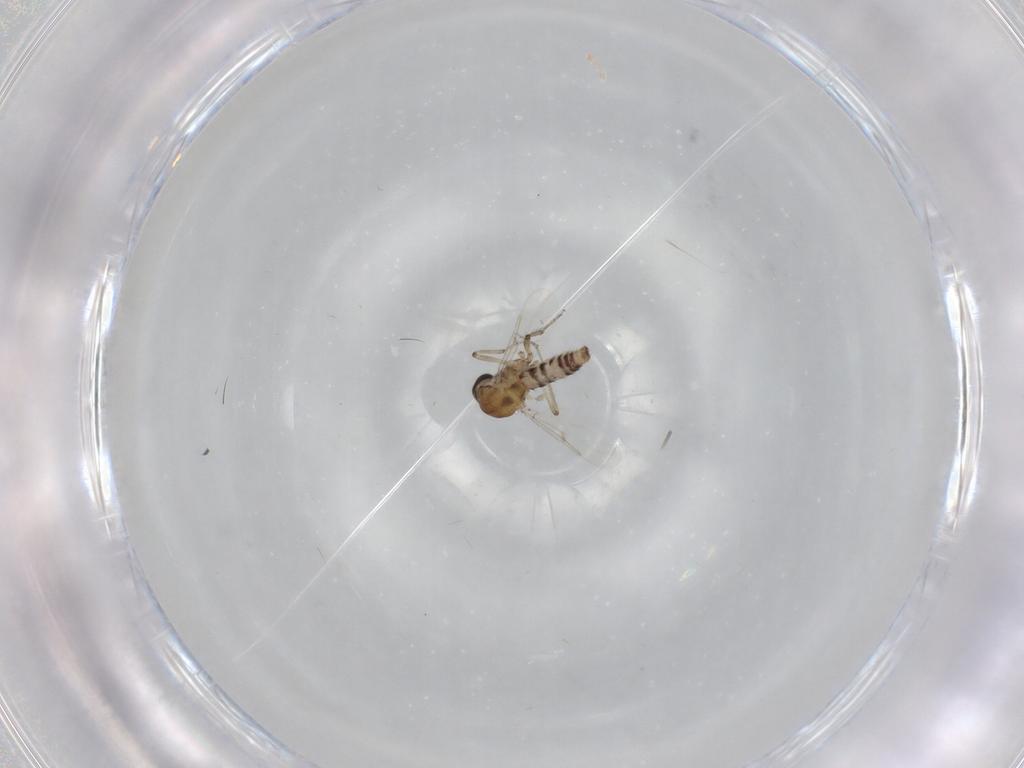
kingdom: Animalia
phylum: Arthropoda
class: Insecta
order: Diptera
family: Ceratopogonidae
